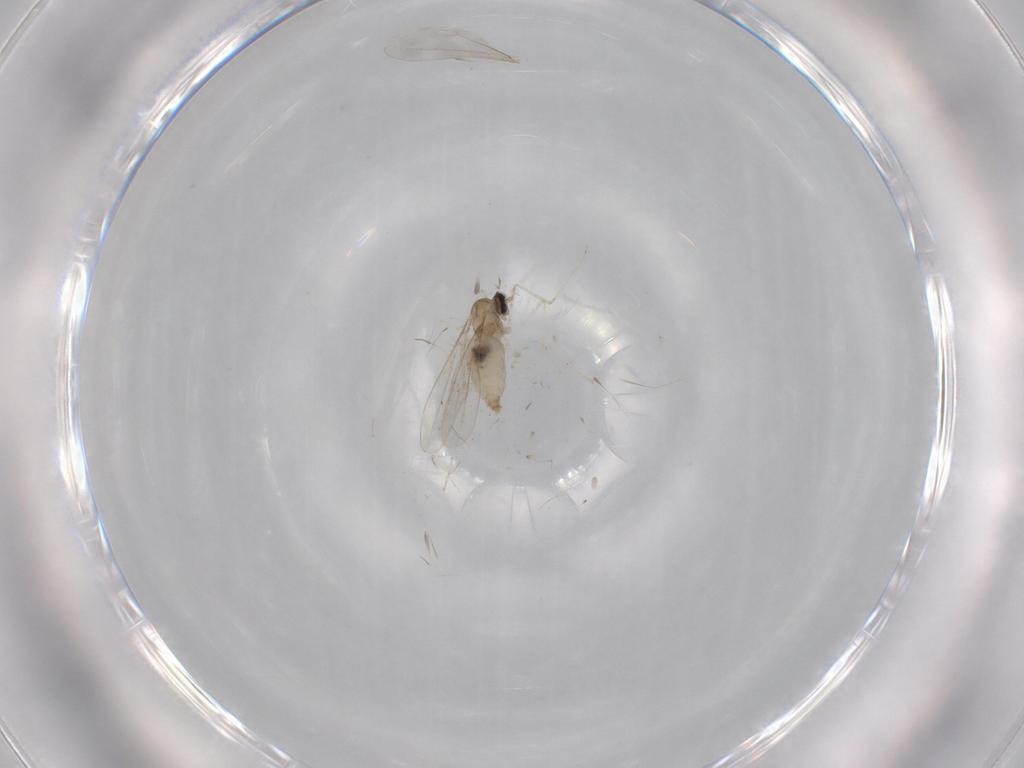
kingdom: Animalia
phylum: Arthropoda
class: Insecta
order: Diptera
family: Cecidomyiidae
